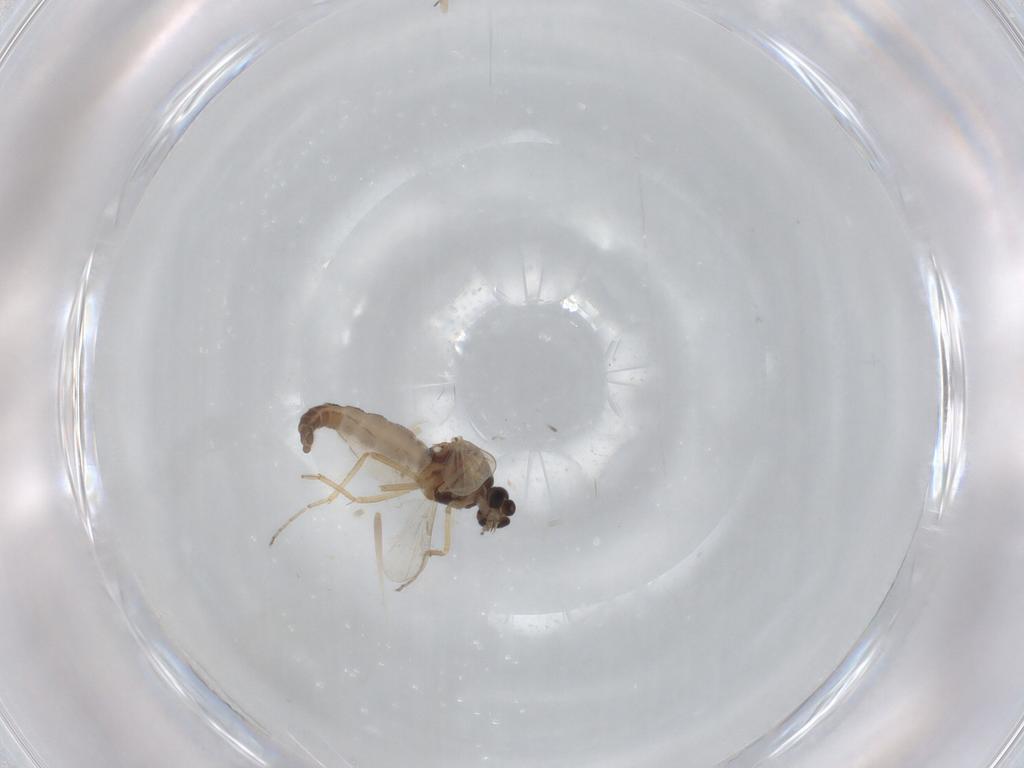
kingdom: Animalia
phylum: Arthropoda
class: Insecta
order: Diptera
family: Ceratopogonidae
